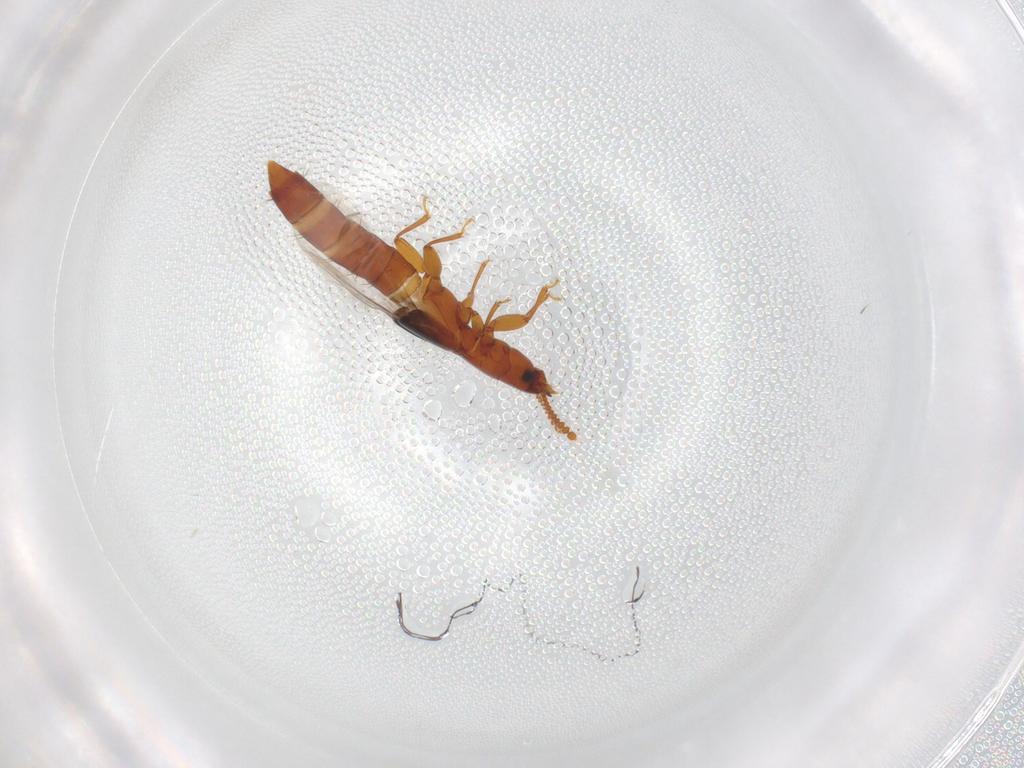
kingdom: Animalia
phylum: Arthropoda
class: Insecta
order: Coleoptera
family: Staphylinidae
